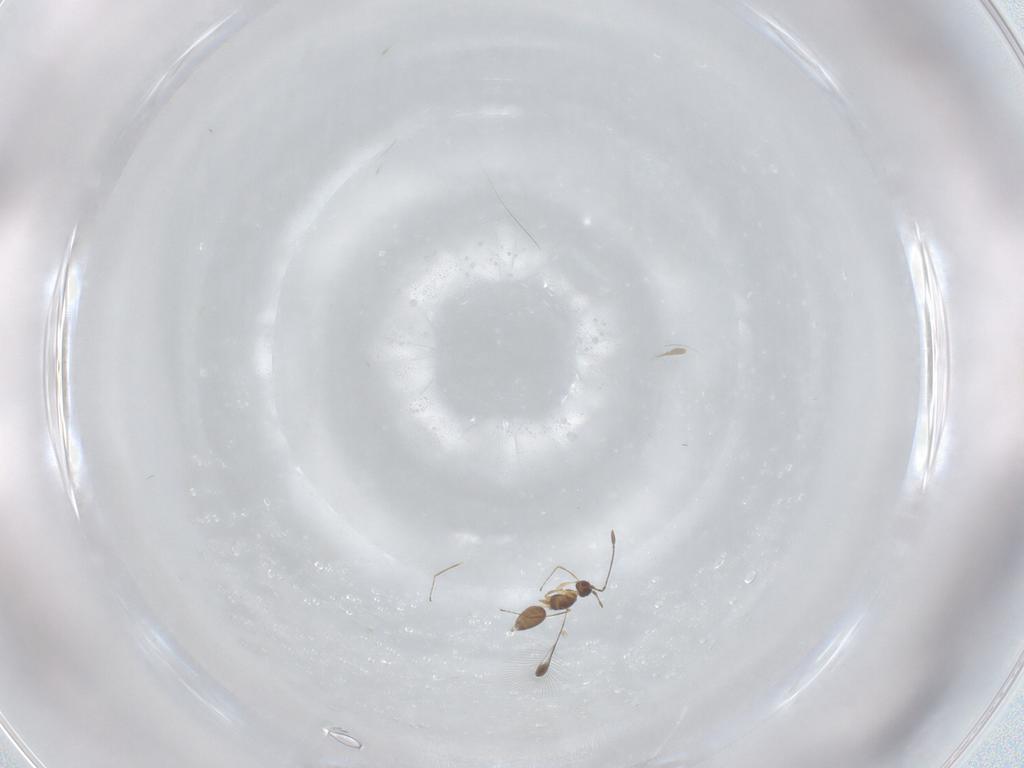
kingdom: Animalia
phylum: Arthropoda
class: Insecta
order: Hymenoptera
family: Mymaridae
